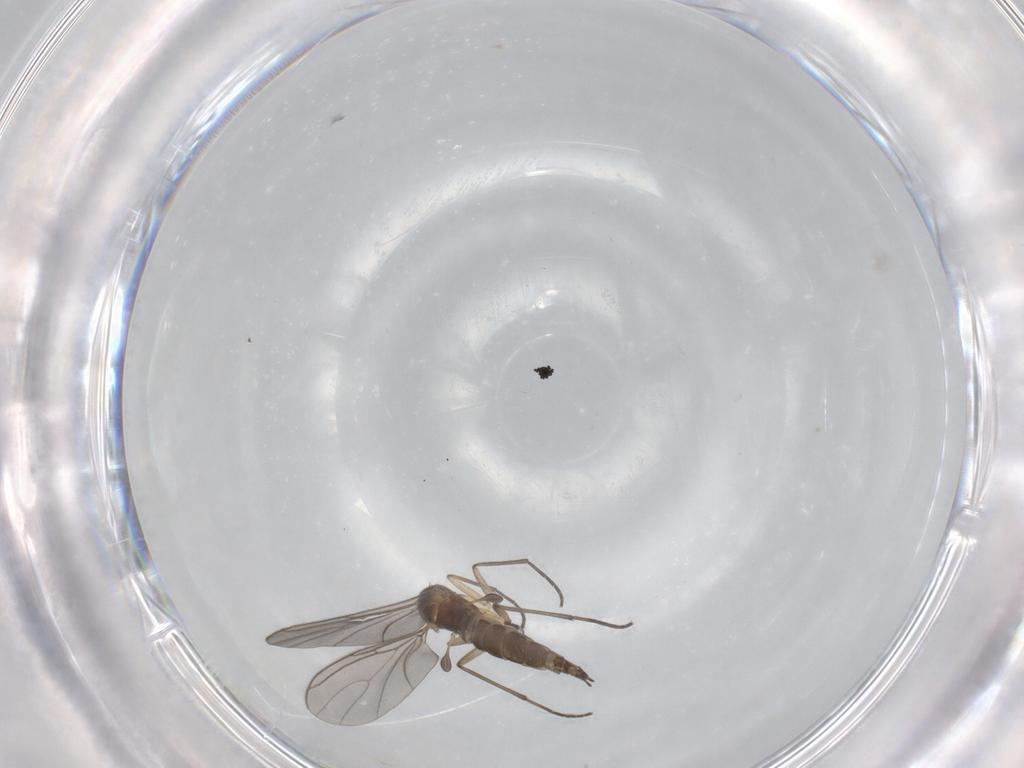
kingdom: Animalia
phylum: Arthropoda
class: Insecta
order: Diptera
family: Sciaridae
